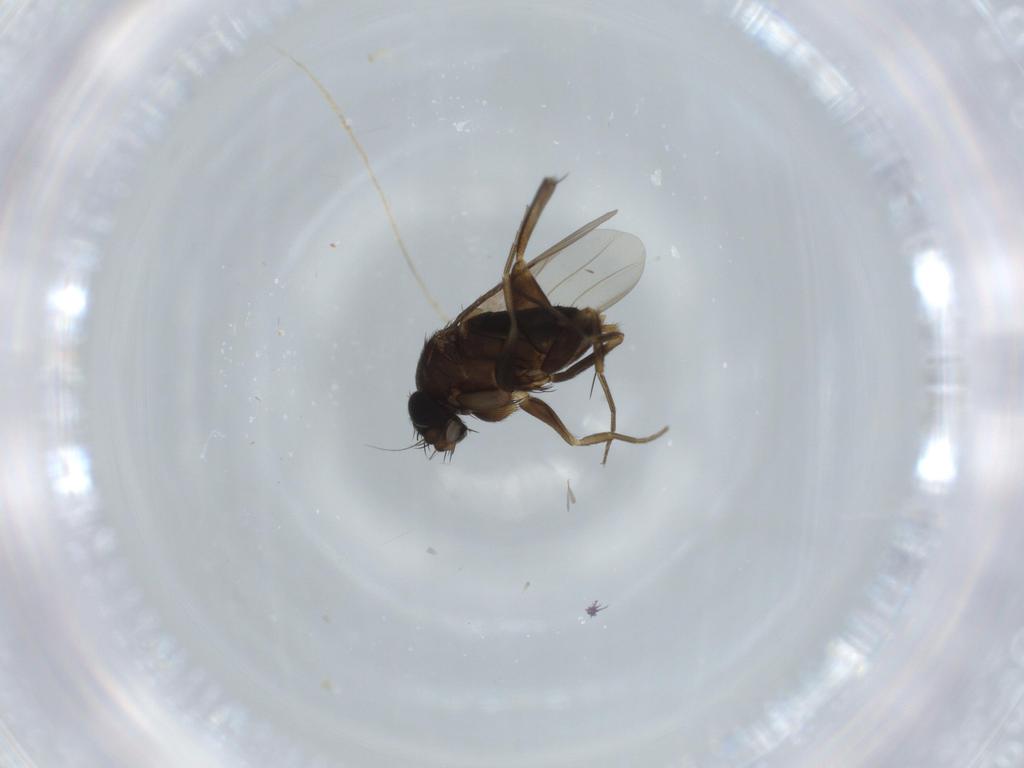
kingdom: Animalia
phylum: Arthropoda
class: Insecta
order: Diptera
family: Phoridae
